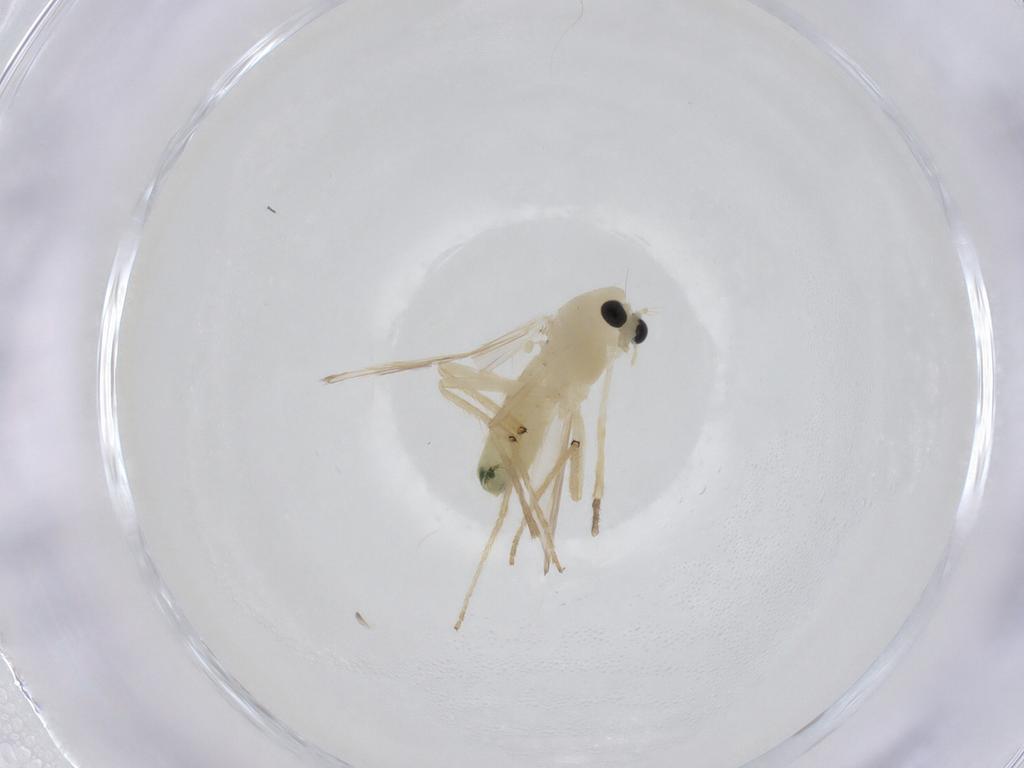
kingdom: Animalia
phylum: Arthropoda
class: Insecta
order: Diptera
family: Chironomidae
